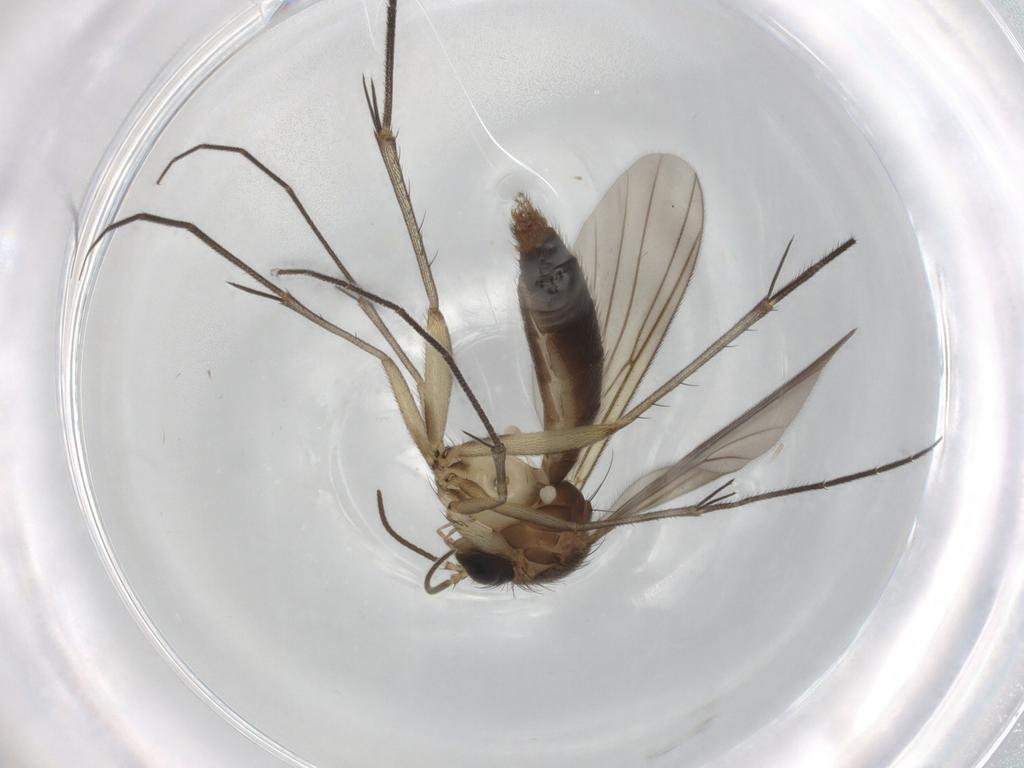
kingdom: Animalia
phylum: Arthropoda
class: Insecta
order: Diptera
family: Mycetophilidae
